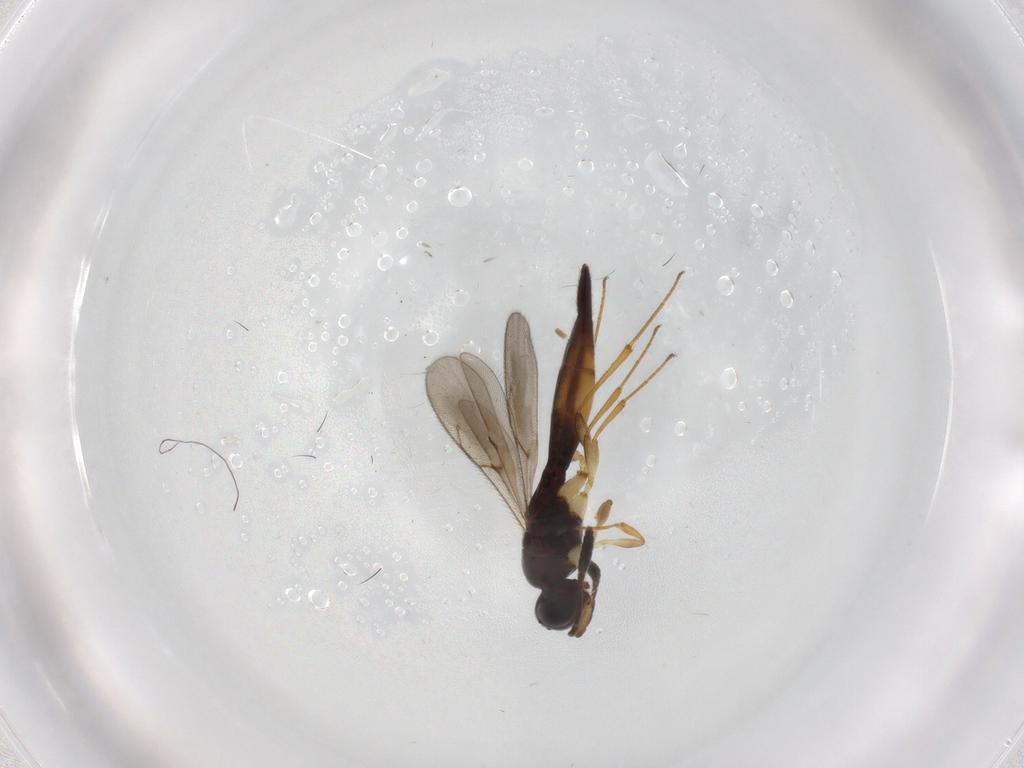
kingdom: Animalia
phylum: Arthropoda
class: Insecta
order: Hymenoptera
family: Scelionidae
